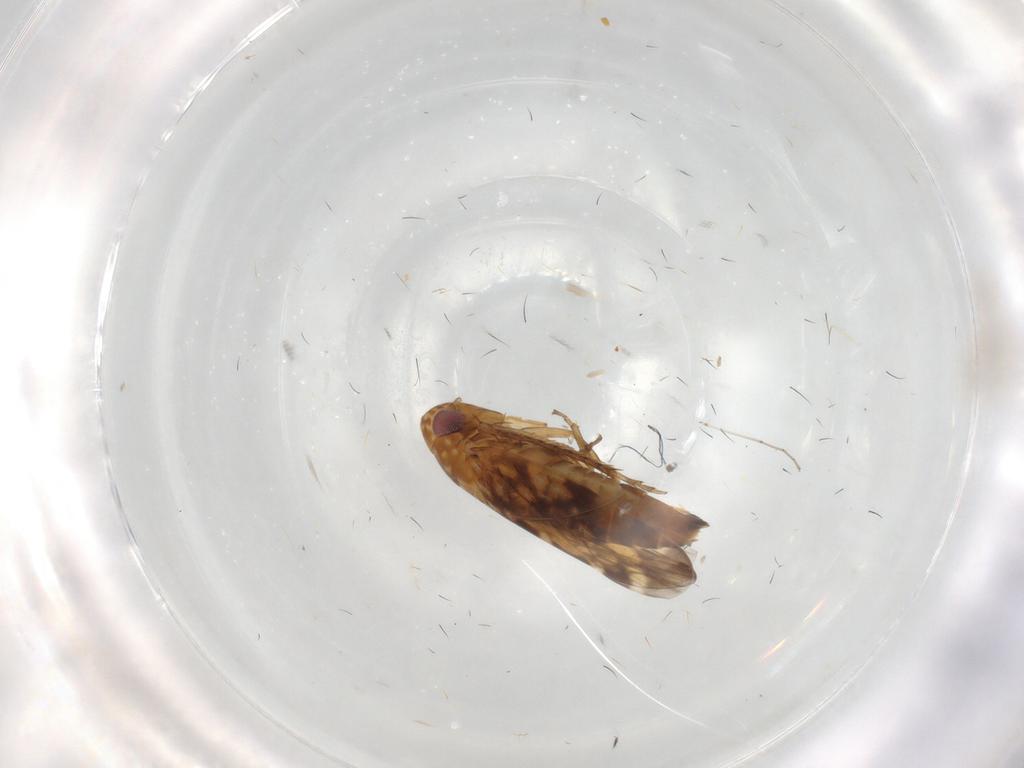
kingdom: Animalia
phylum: Arthropoda
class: Insecta
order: Hemiptera
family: Cicadellidae
